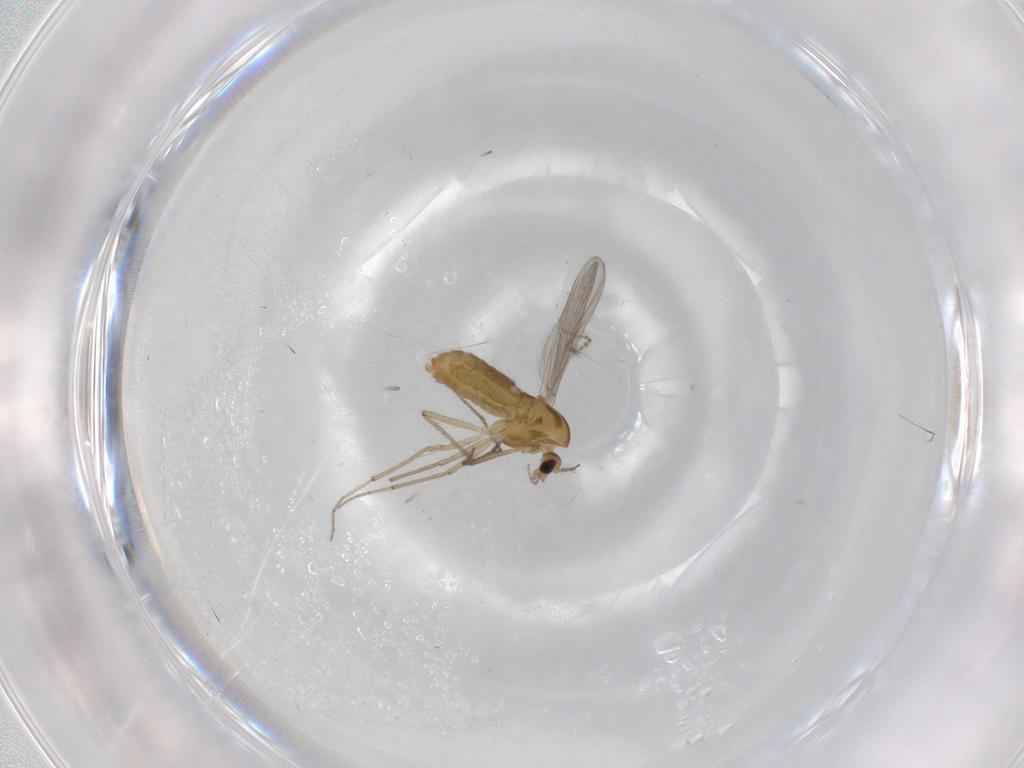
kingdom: Animalia
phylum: Arthropoda
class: Insecta
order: Diptera
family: Chironomidae
